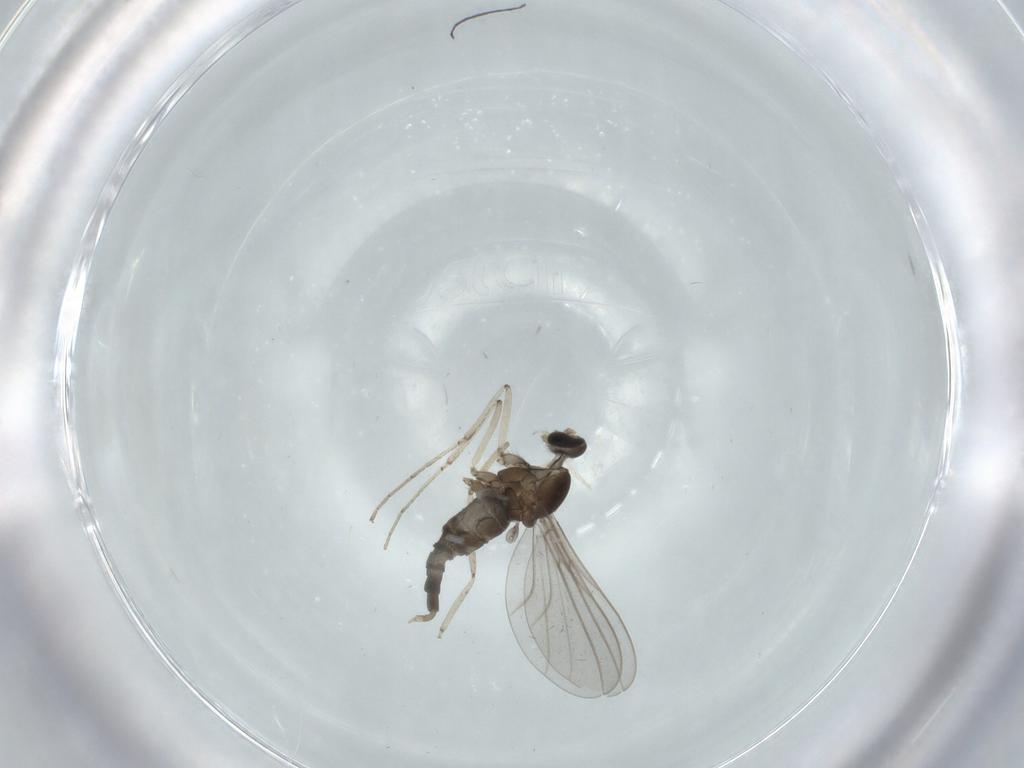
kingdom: Animalia
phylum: Arthropoda
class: Insecta
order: Diptera
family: Cecidomyiidae
